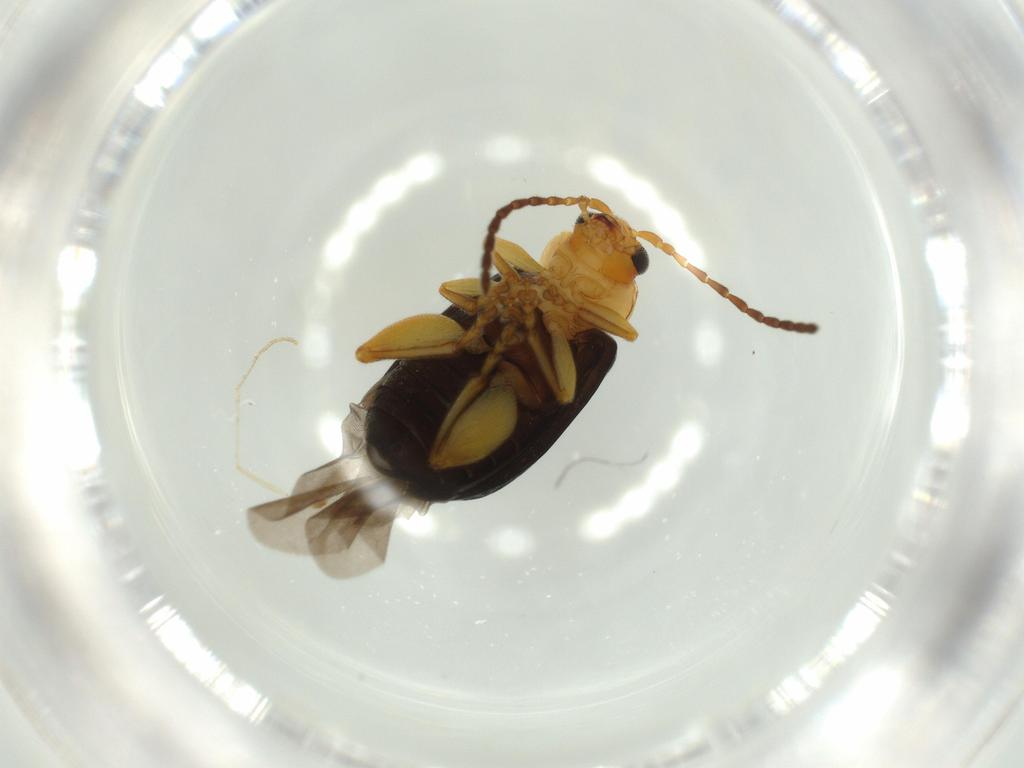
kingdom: Animalia
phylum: Arthropoda
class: Insecta
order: Coleoptera
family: Chrysomelidae
